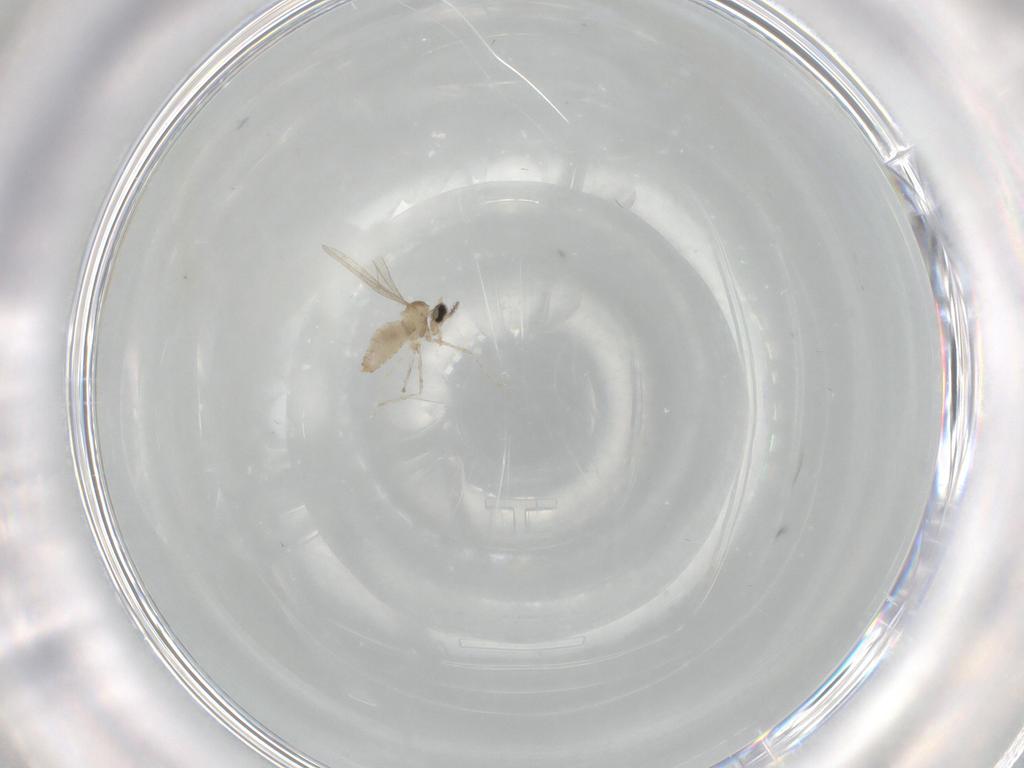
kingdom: Animalia
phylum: Arthropoda
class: Insecta
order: Diptera
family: Cecidomyiidae
